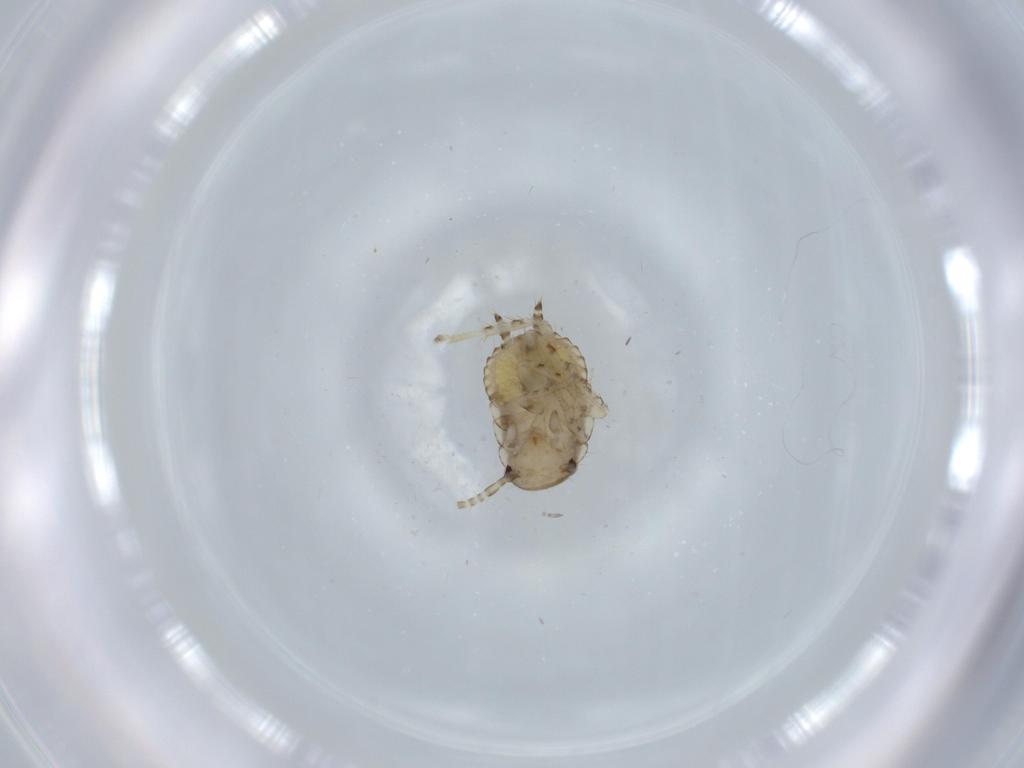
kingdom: Animalia
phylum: Arthropoda
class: Insecta
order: Blattodea
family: Ectobiidae
